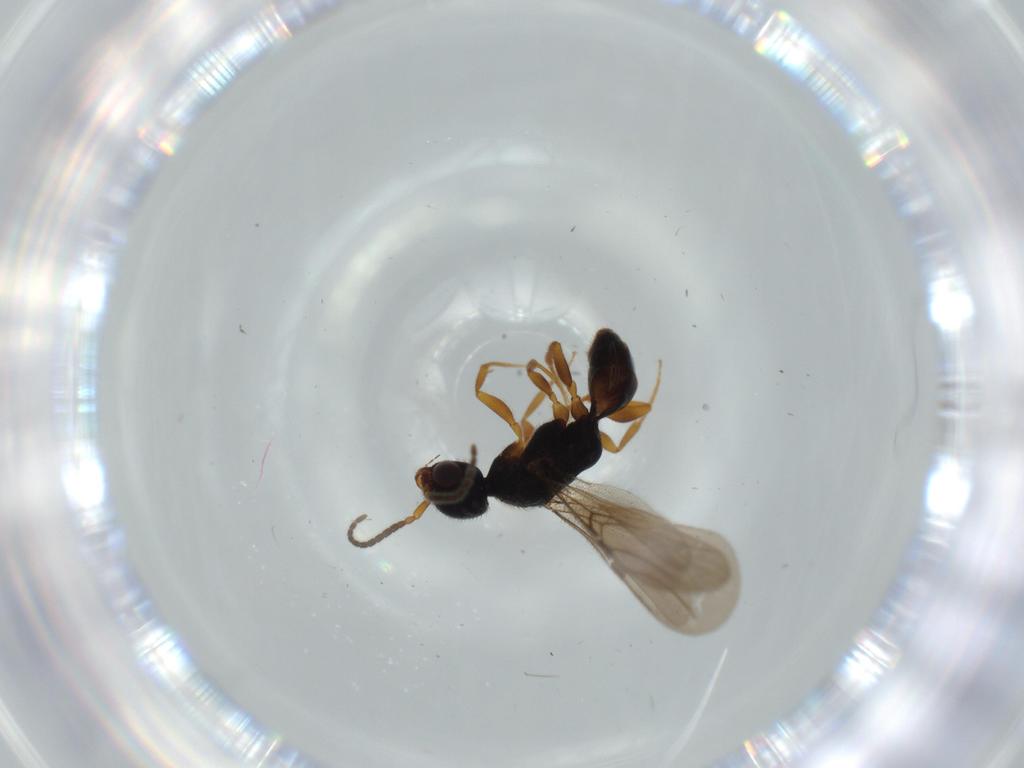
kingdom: Animalia
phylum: Arthropoda
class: Insecta
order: Hymenoptera
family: Bethylidae
